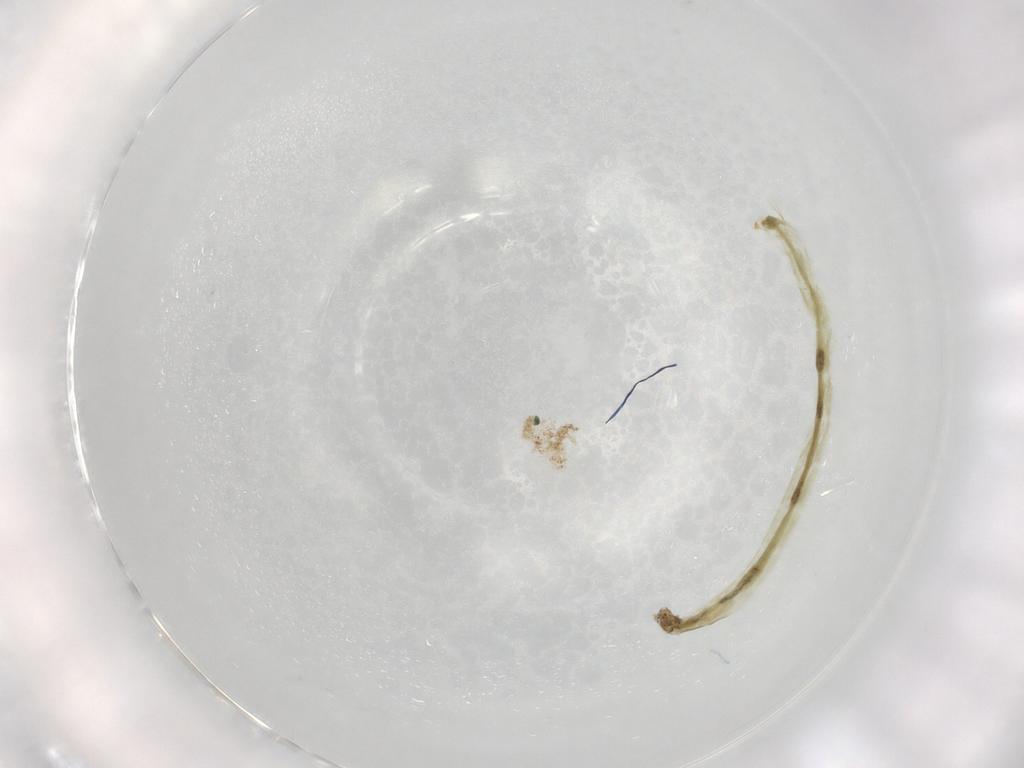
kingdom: Animalia
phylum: Arthropoda
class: Insecta
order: Diptera
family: Chironomidae
